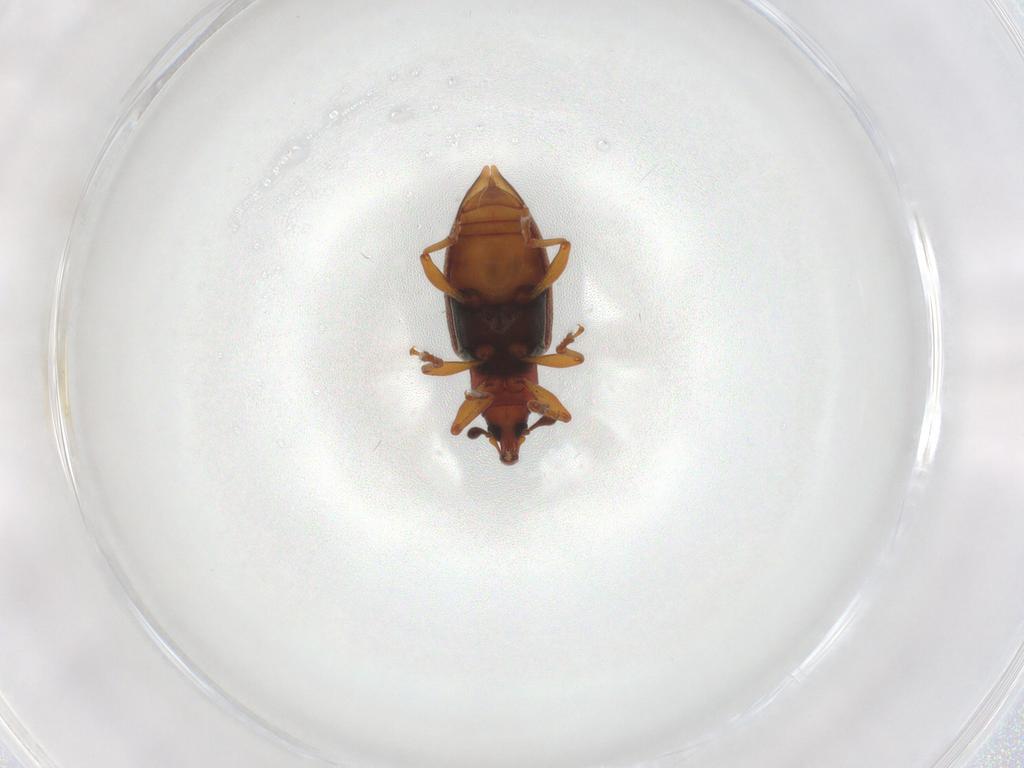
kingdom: Animalia
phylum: Arthropoda
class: Insecta
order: Coleoptera
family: Curculionidae
